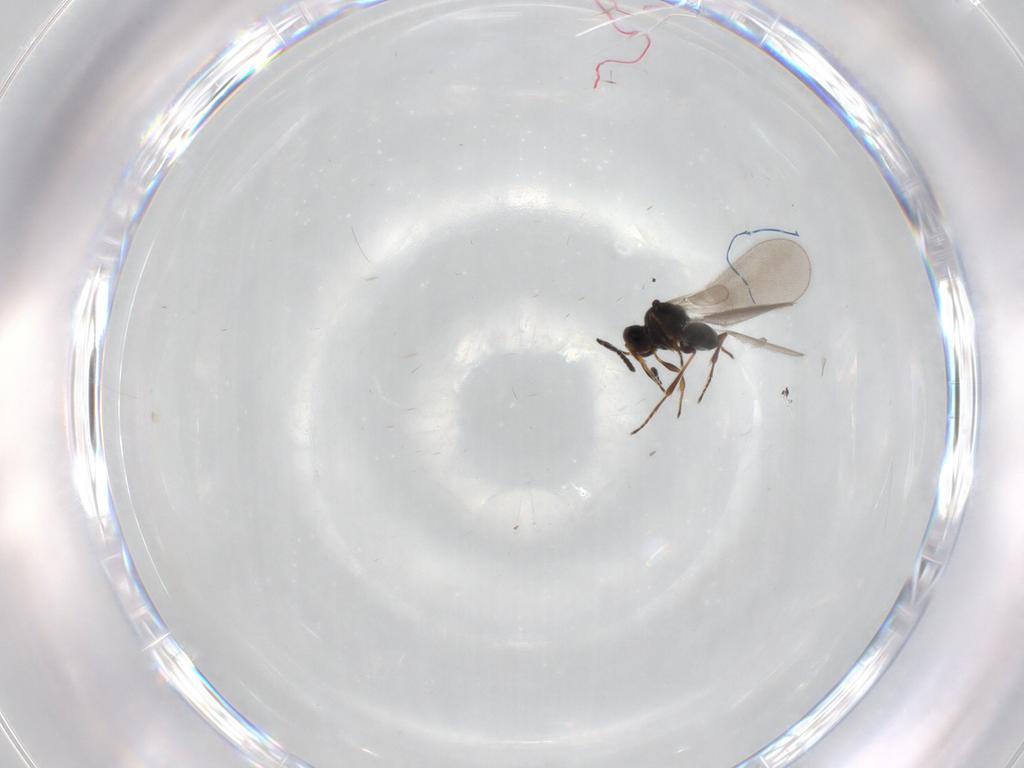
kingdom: Animalia
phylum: Arthropoda
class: Insecta
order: Hymenoptera
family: Platygastridae
